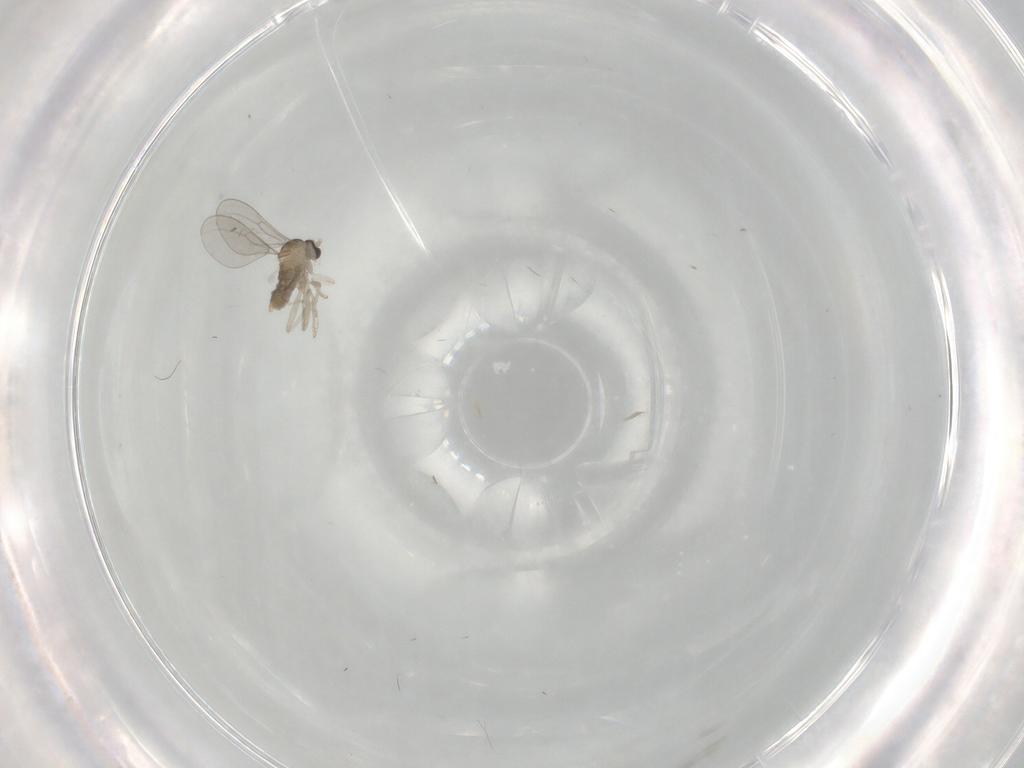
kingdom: Animalia
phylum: Arthropoda
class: Insecta
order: Diptera
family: Cecidomyiidae
